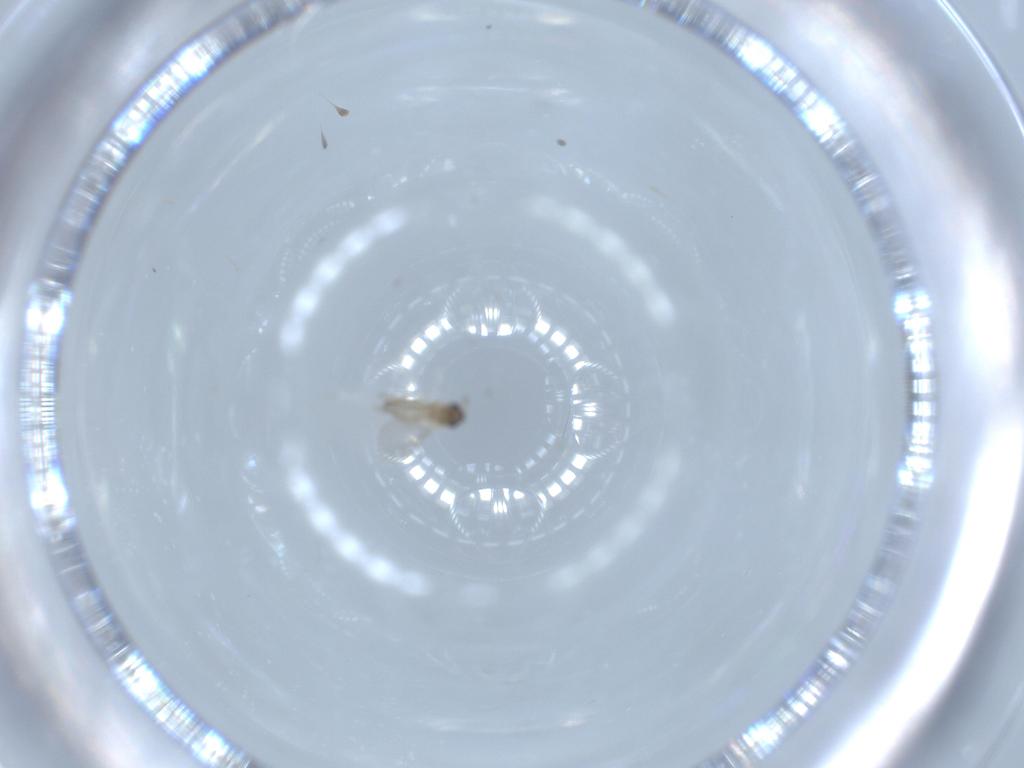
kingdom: Animalia
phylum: Arthropoda
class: Insecta
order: Diptera
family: Cecidomyiidae
